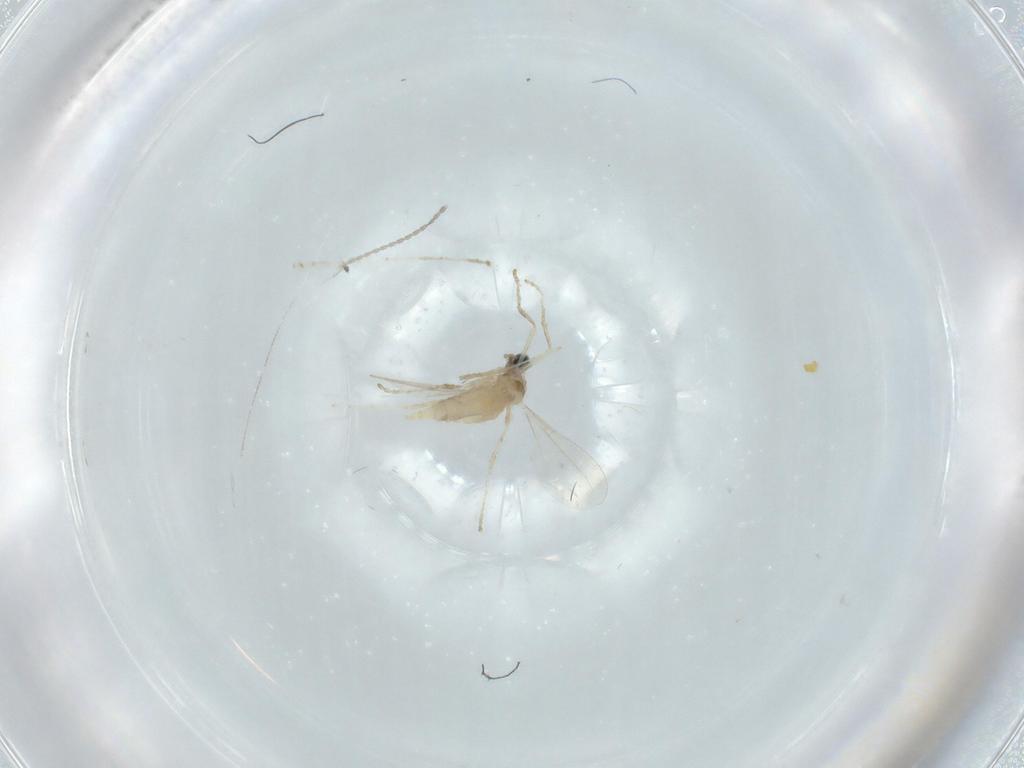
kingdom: Animalia
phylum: Arthropoda
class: Insecta
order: Diptera
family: Cecidomyiidae
